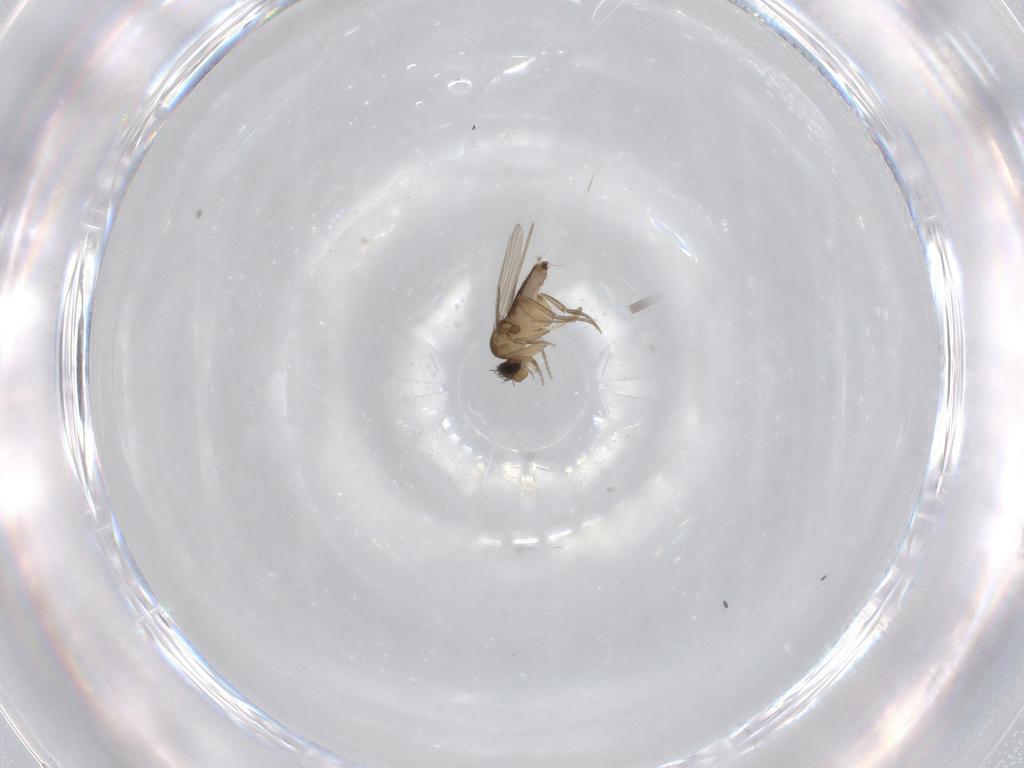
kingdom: Animalia
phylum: Arthropoda
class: Insecta
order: Diptera
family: Phoridae
